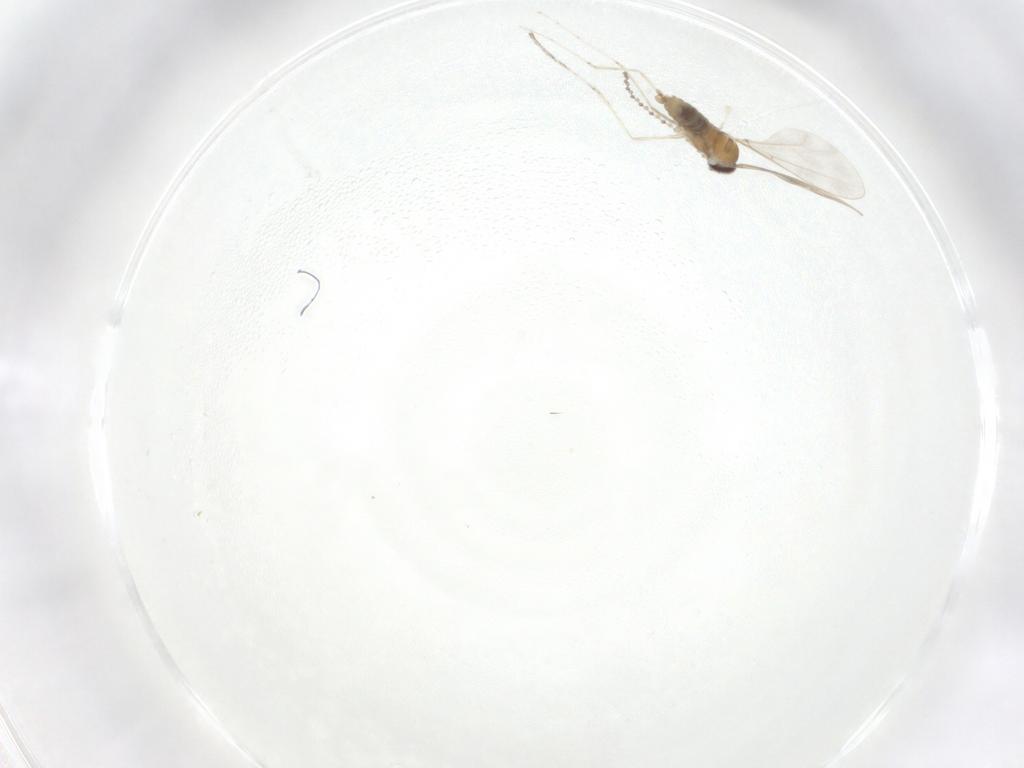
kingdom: Animalia
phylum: Arthropoda
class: Insecta
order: Diptera
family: Cecidomyiidae
